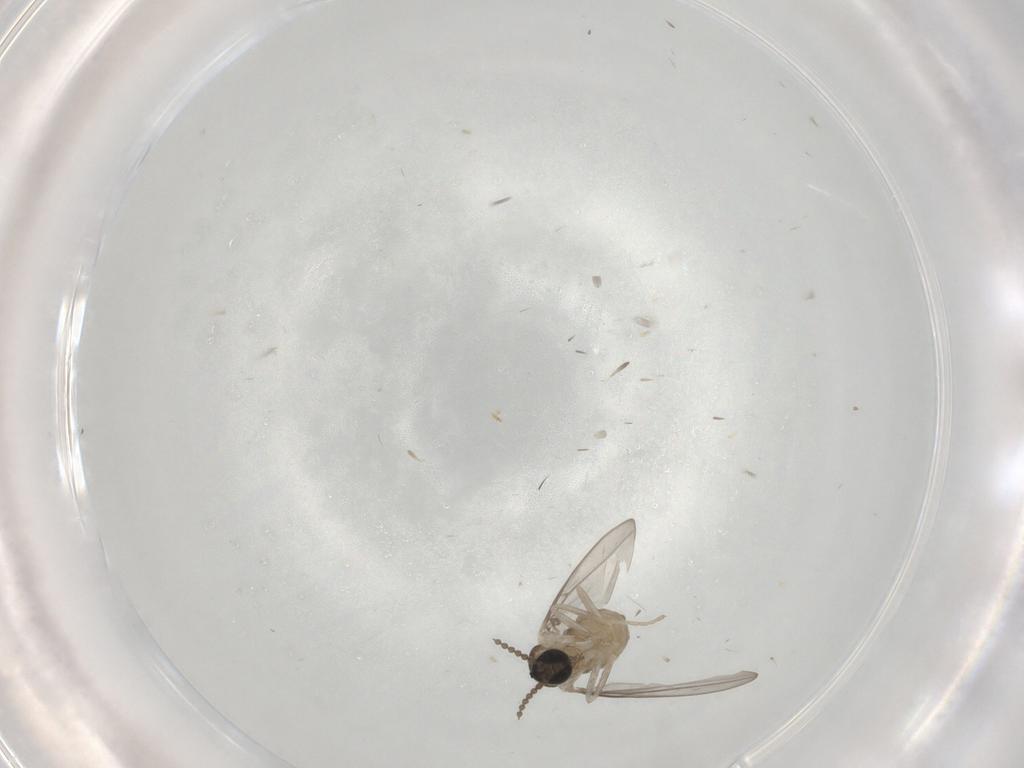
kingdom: Animalia
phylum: Arthropoda
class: Insecta
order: Diptera
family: Cecidomyiidae
